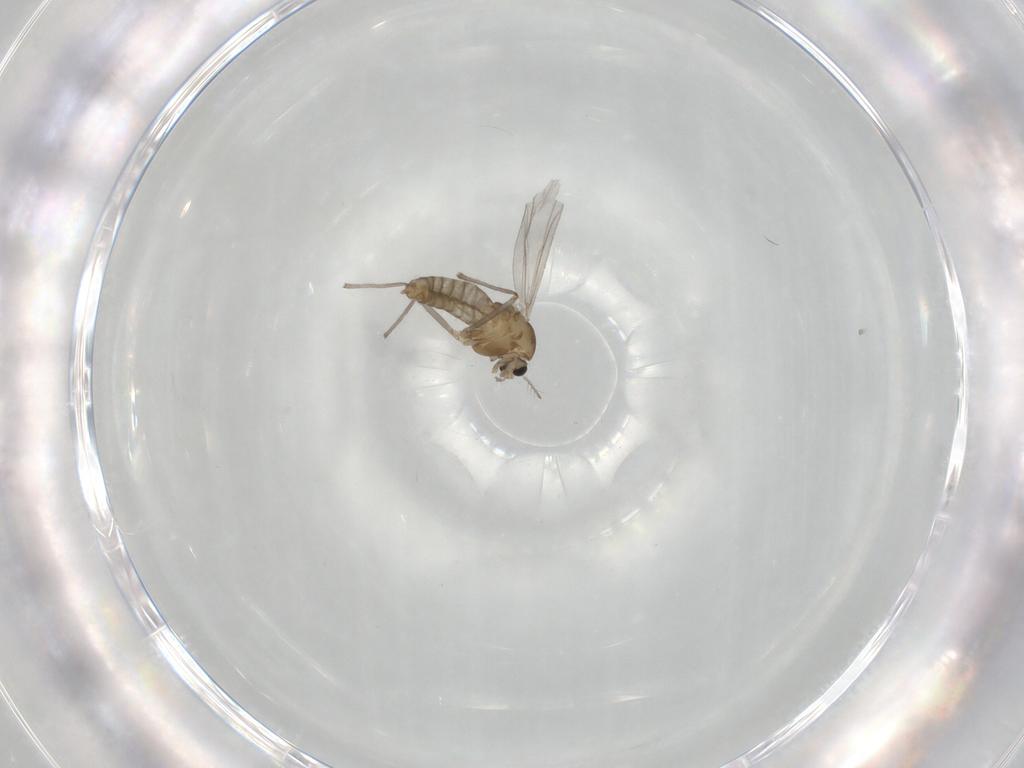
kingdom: Animalia
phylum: Arthropoda
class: Insecta
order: Diptera
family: Chironomidae
